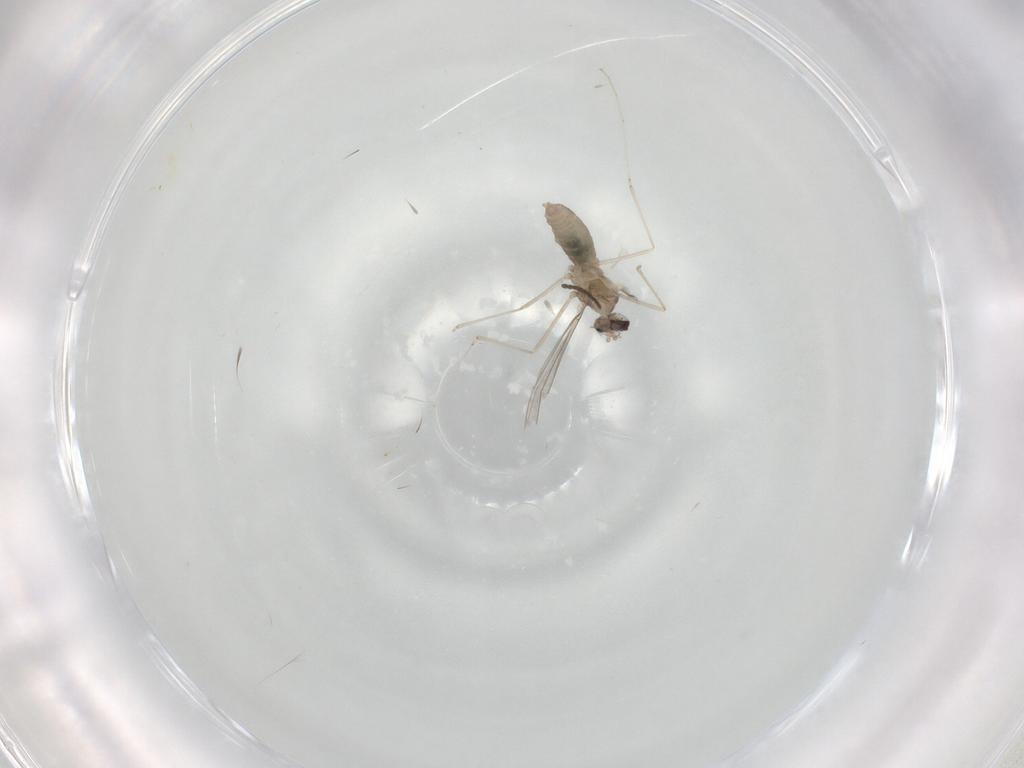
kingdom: Animalia
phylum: Arthropoda
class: Insecta
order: Diptera
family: Cecidomyiidae
